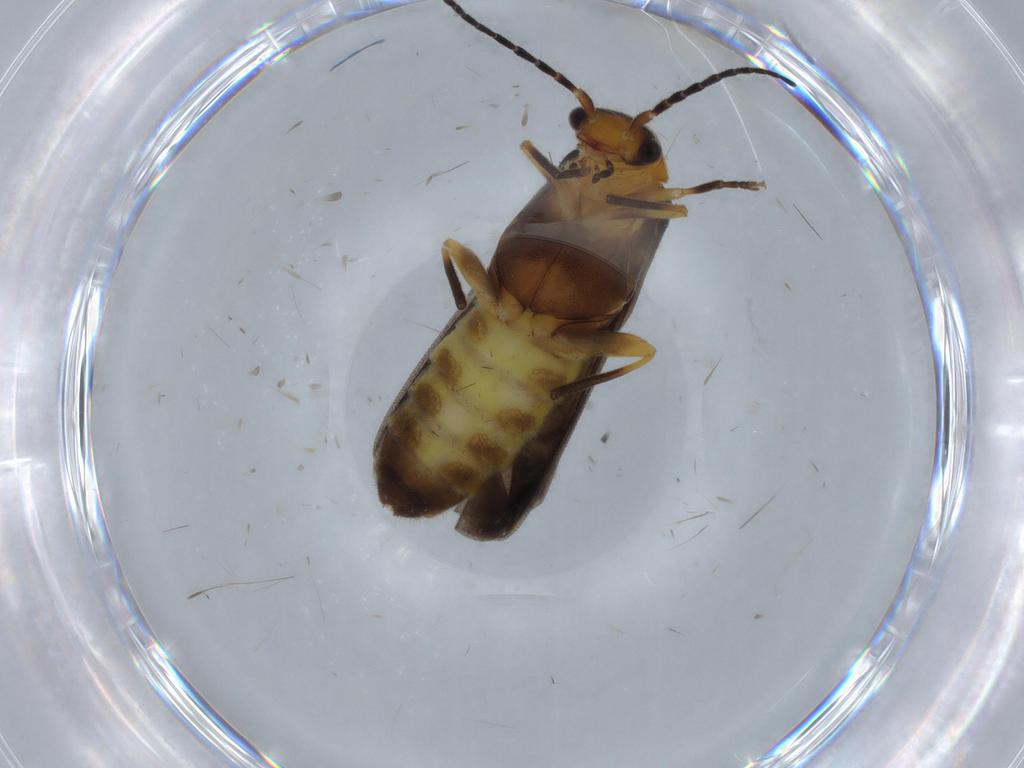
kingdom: Animalia
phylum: Arthropoda
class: Insecta
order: Coleoptera
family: Cantharidae
